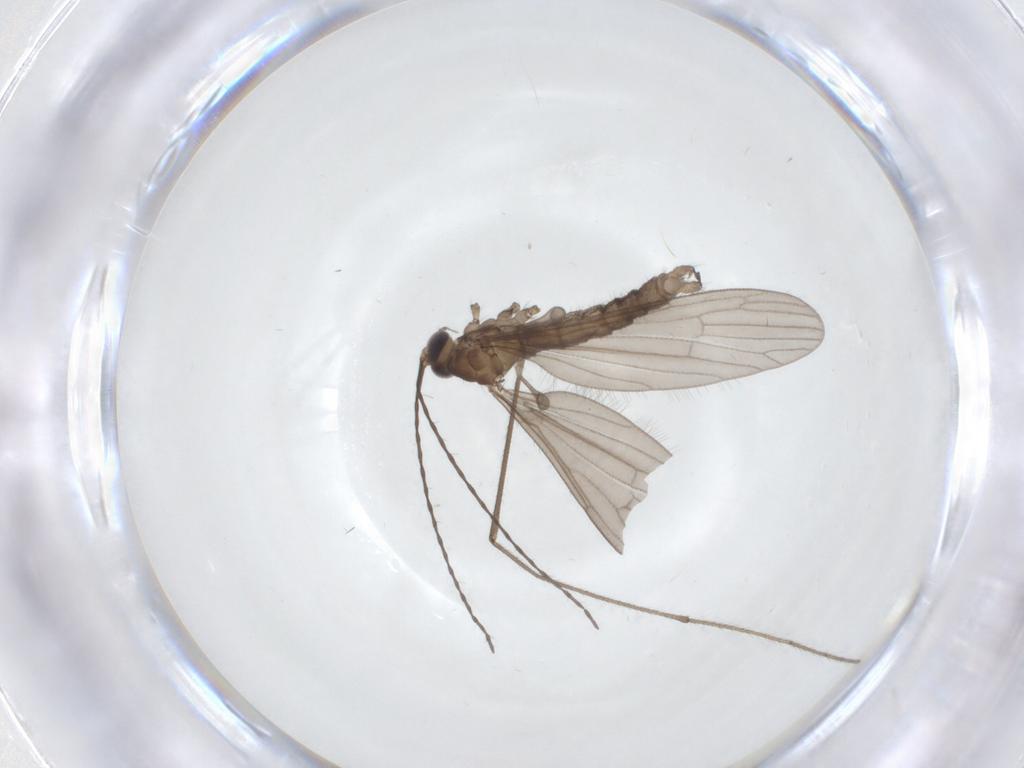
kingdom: Animalia
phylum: Arthropoda
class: Insecta
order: Diptera
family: Limoniidae
